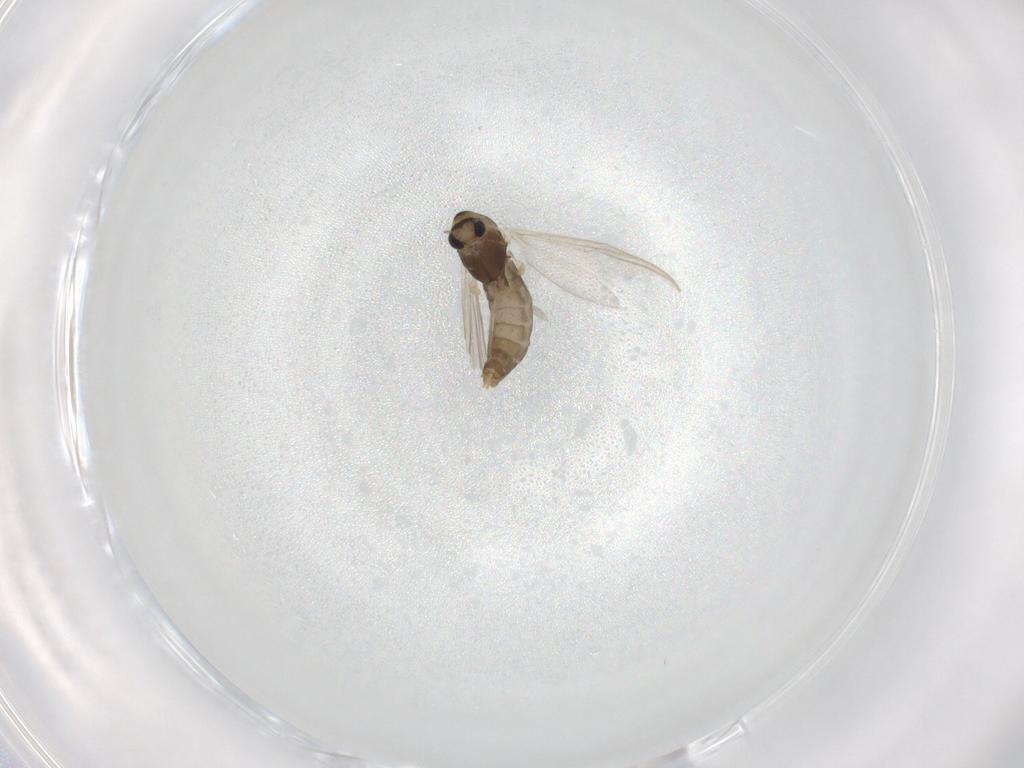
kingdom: Animalia
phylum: Arthropoda
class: Insecta
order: Diptera
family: Chironomidae
